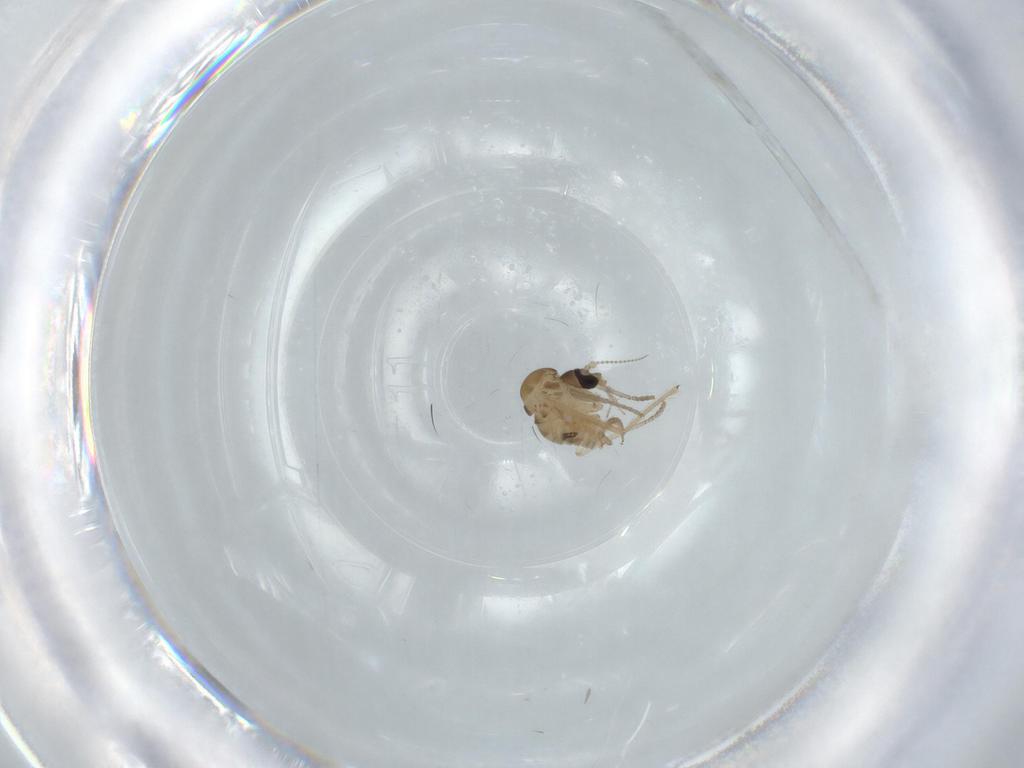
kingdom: Animalia
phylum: Arthropoda
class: Insecta
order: Diptera
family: Psychodidae
